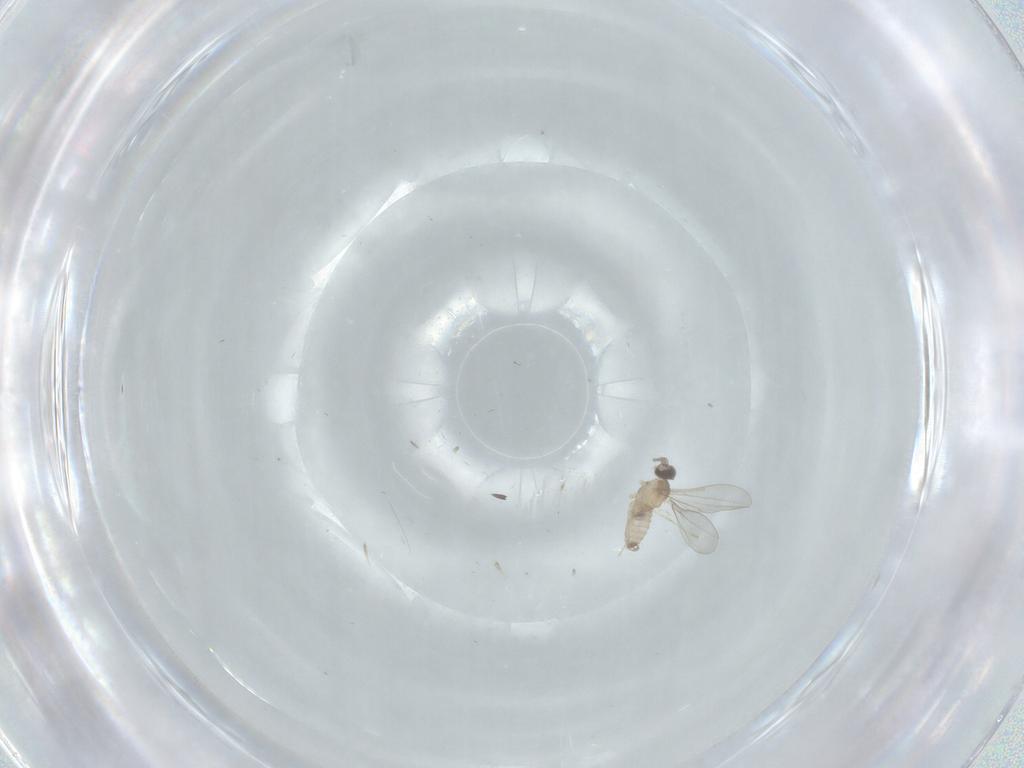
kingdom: Animalia
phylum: Arthropoda
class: Insecta
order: Diptera
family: Cecidomyiidae
